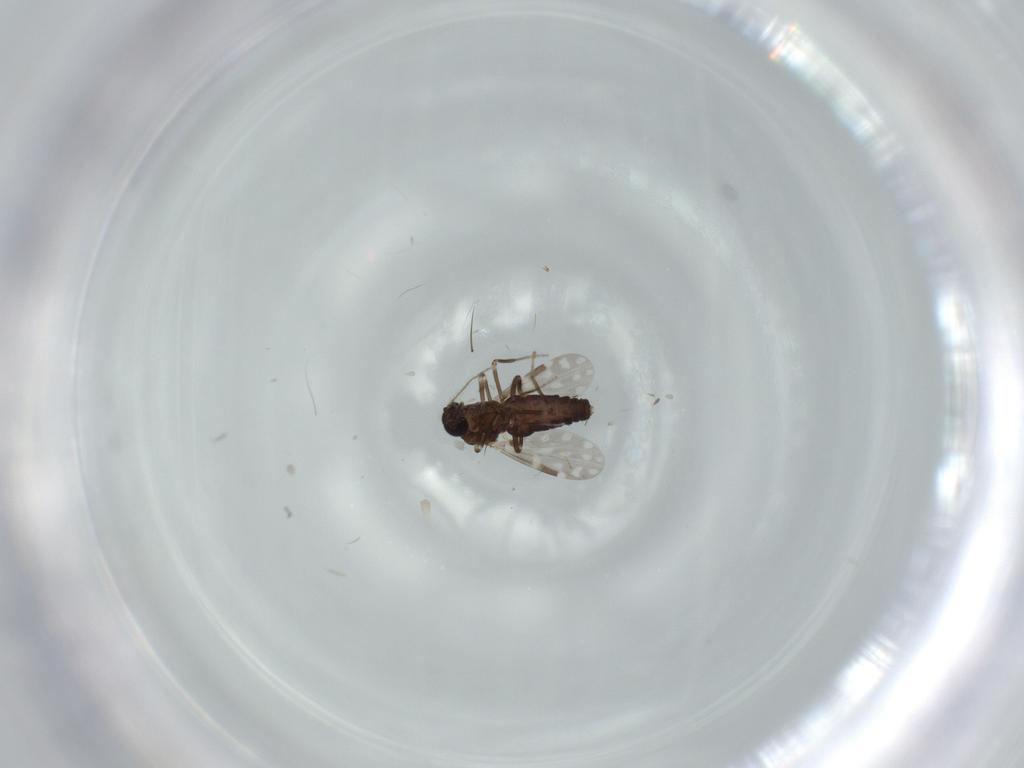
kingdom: Animalia
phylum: Arthropoda
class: Insecta
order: Diptera
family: Ceratopogonidae
